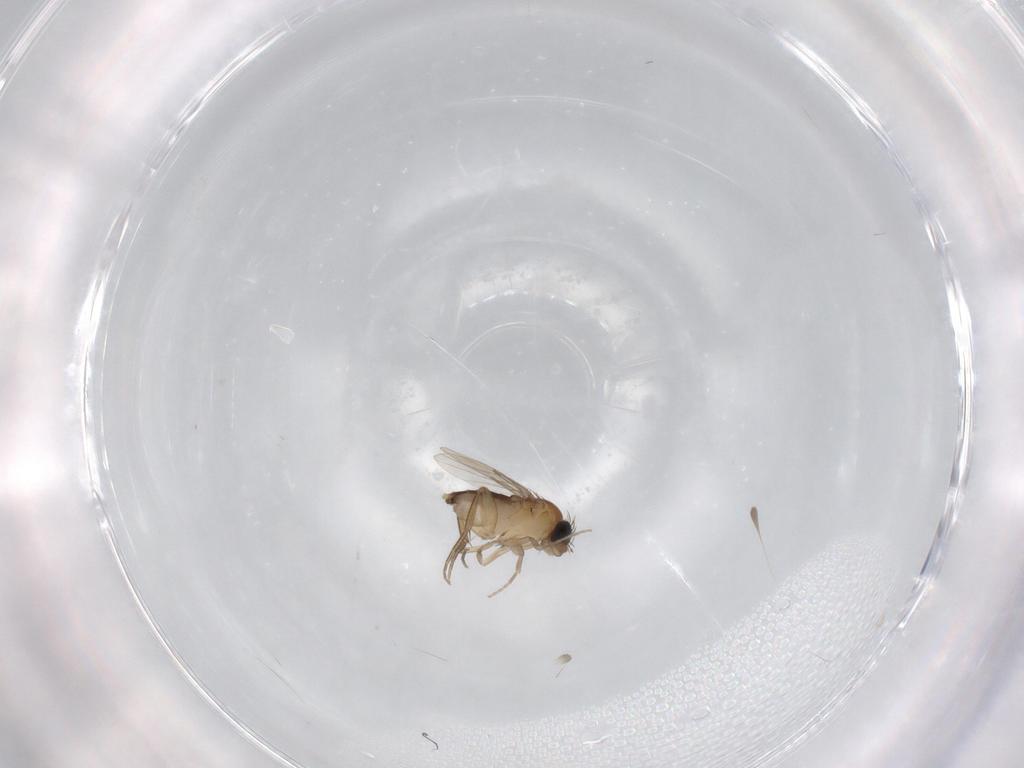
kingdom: Animalia
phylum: Arthropoda
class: Insecta
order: Diptera
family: Phoridae
